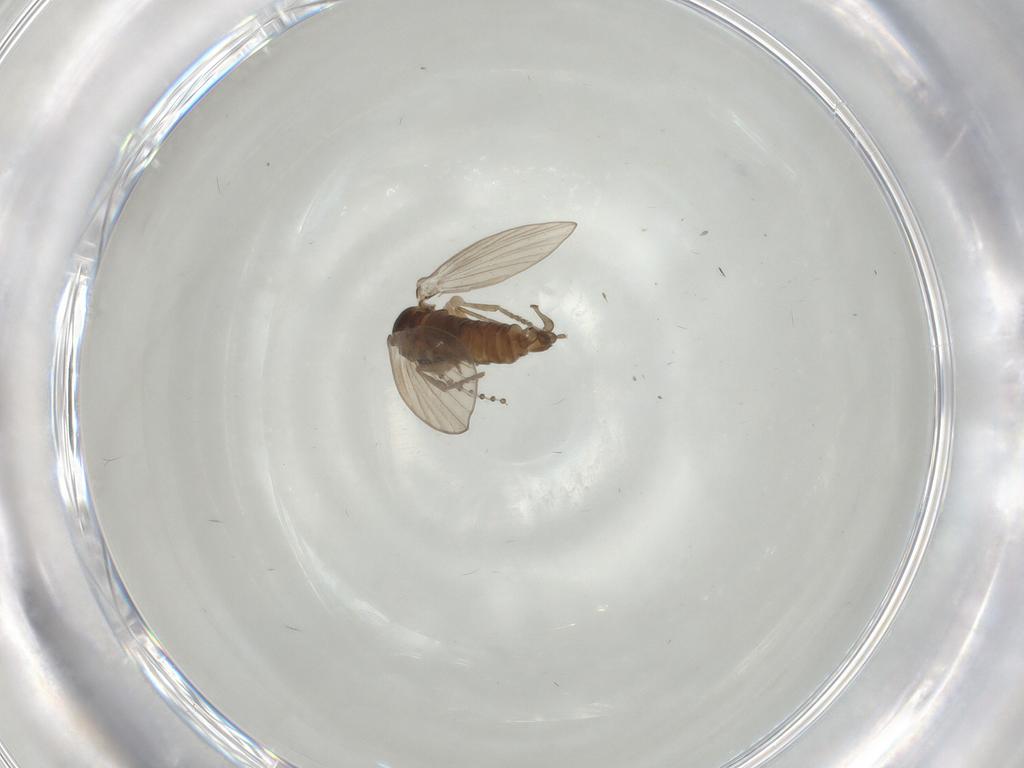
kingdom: Animalia
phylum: Arthropoda
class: Insecta
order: Diptera
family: Psychodidae
